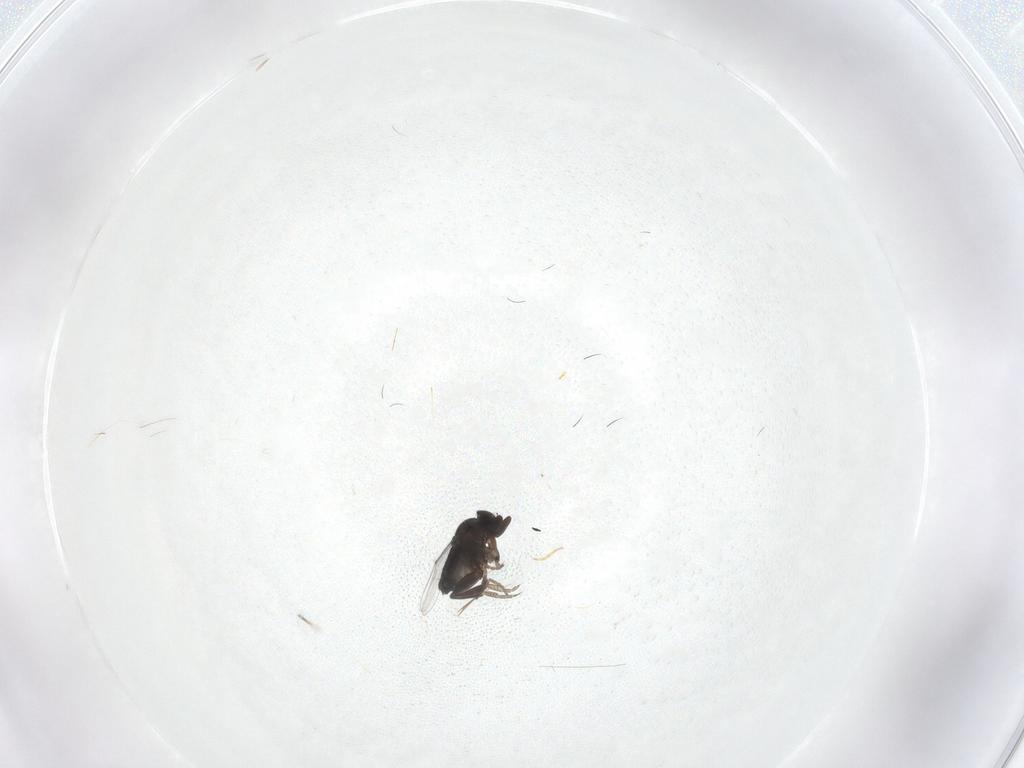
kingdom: Animalia
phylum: Arthropoda
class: Insecta
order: Diptera
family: Phoridae
